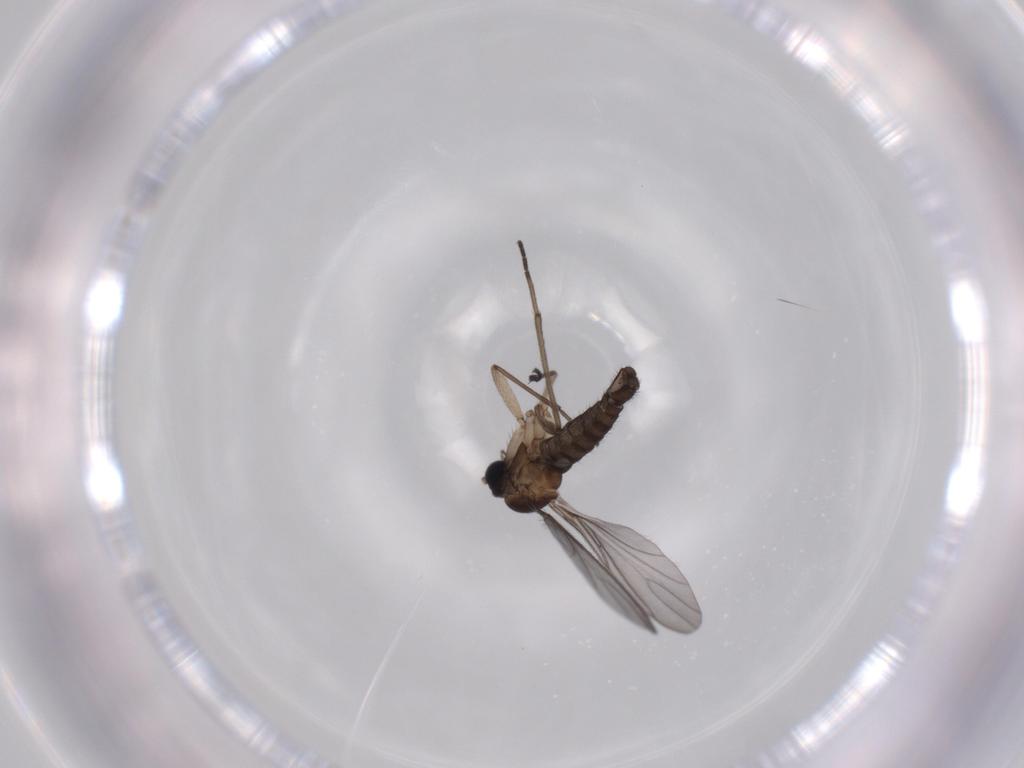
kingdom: Animalia
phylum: Arthropoda
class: Insecta
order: Diptera
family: Sciaridae
